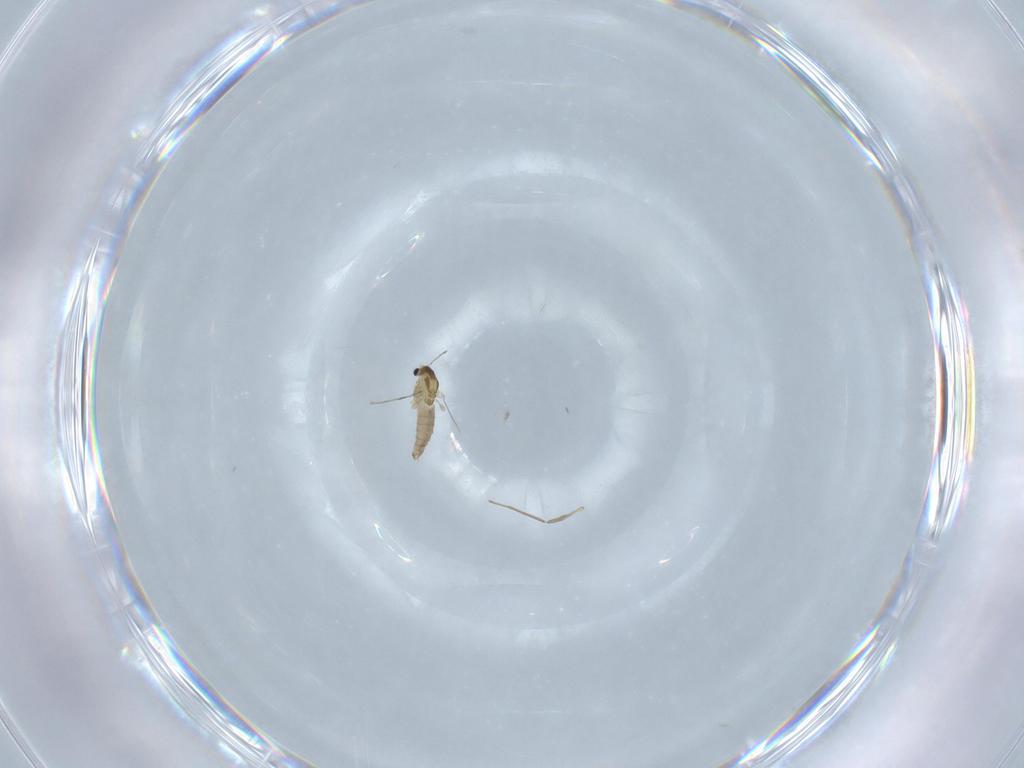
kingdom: Animalia
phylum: Arthropoda
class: Insecta
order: Diptera
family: Chironomidae
